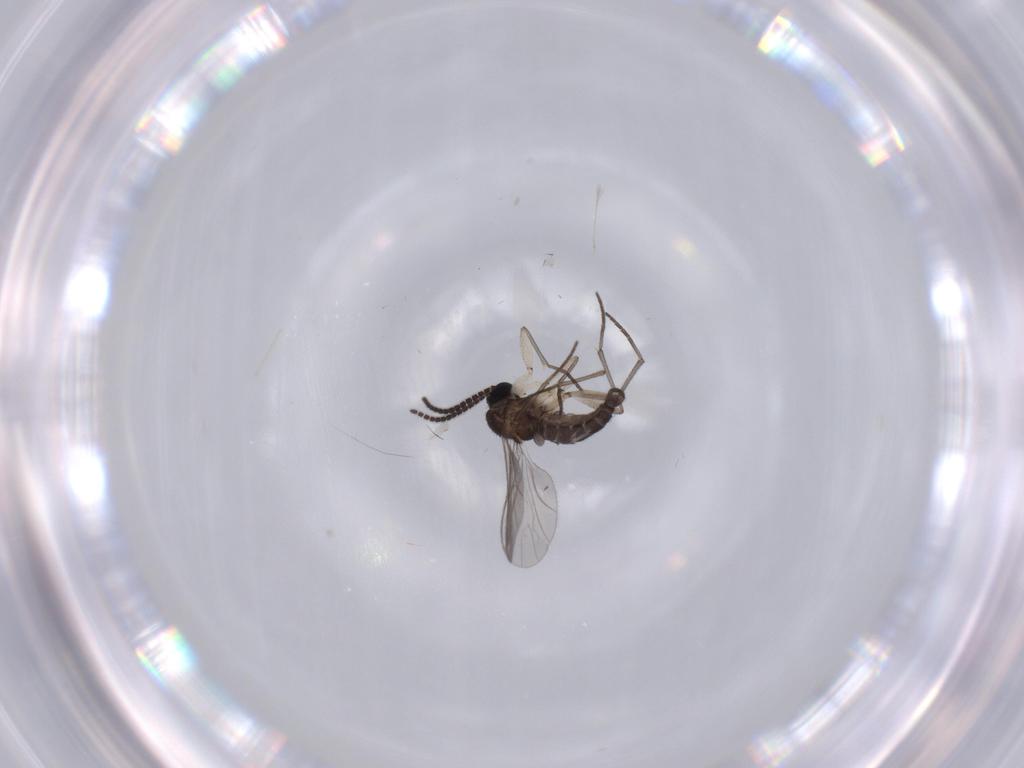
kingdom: Animalia
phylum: Arthropoda
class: Insecta
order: Diptera
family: Sciaridae
